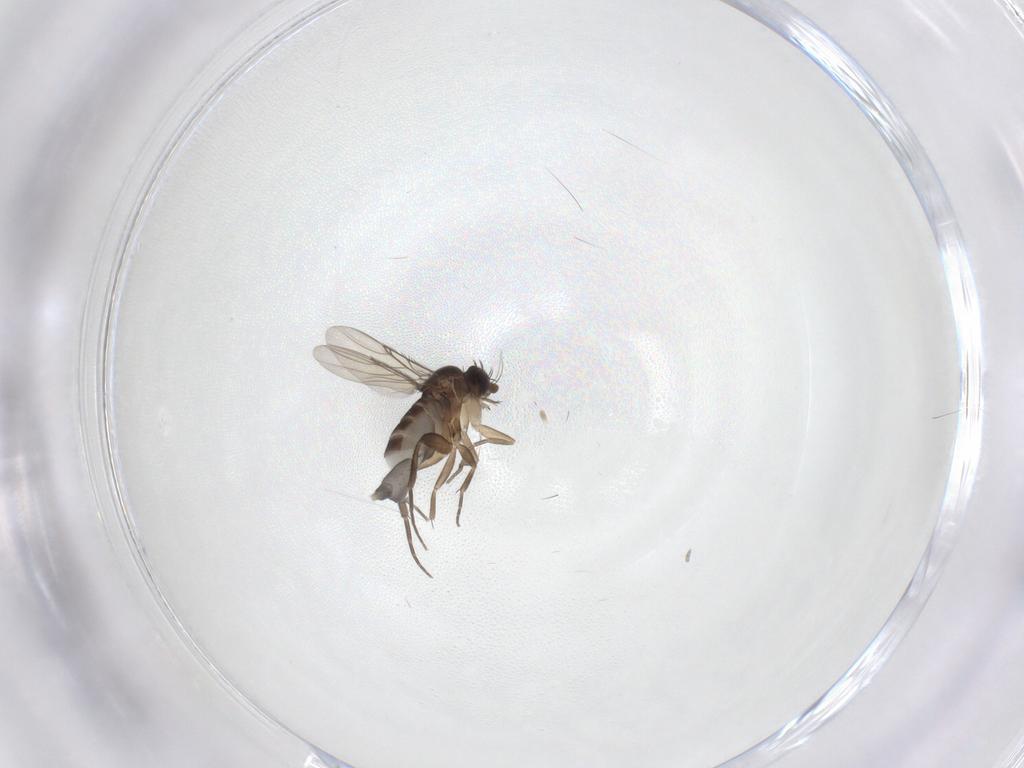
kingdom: Animalia
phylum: Arthropoda
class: Insecta
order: Diptera
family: Phoridae
